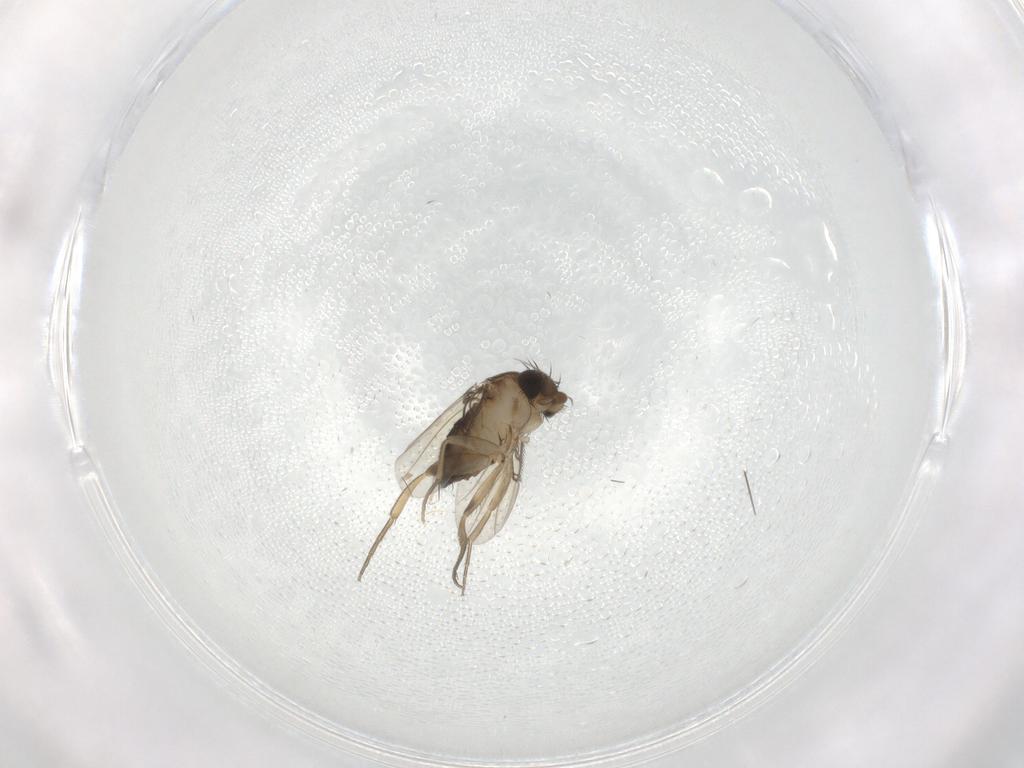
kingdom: Animalia
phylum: Arthropoda
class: Insecta
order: Diptera
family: Phoridae
